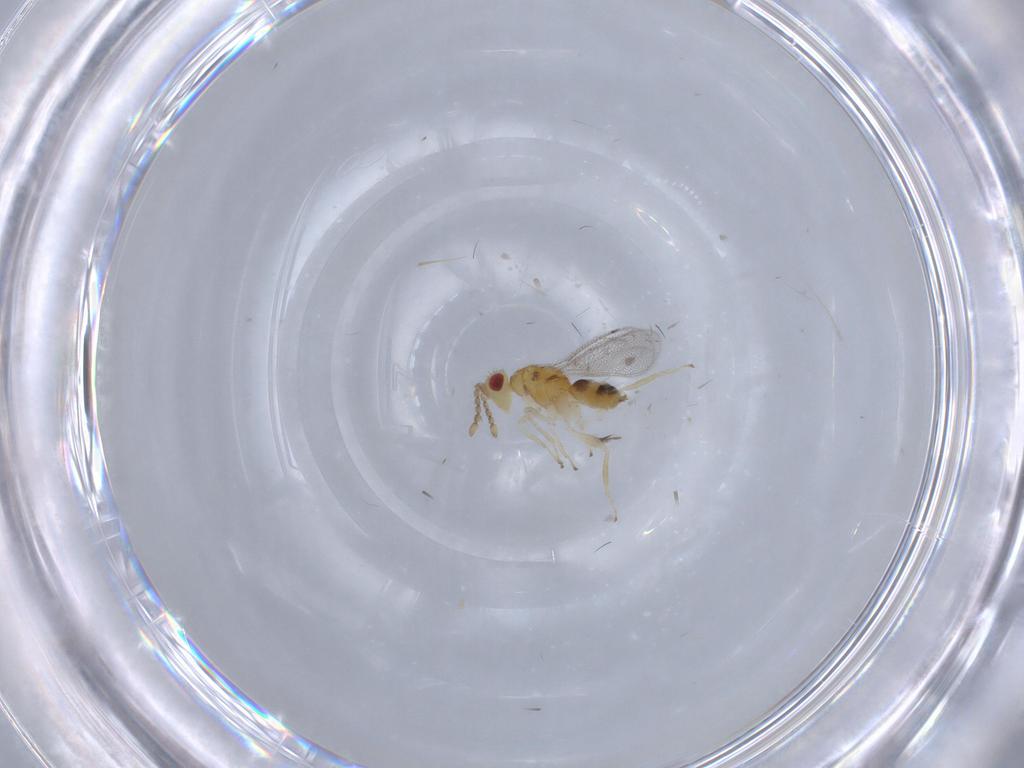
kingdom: Animalia
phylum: Arthropoda
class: Insecta
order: Hymenoptera
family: Eulophidae
